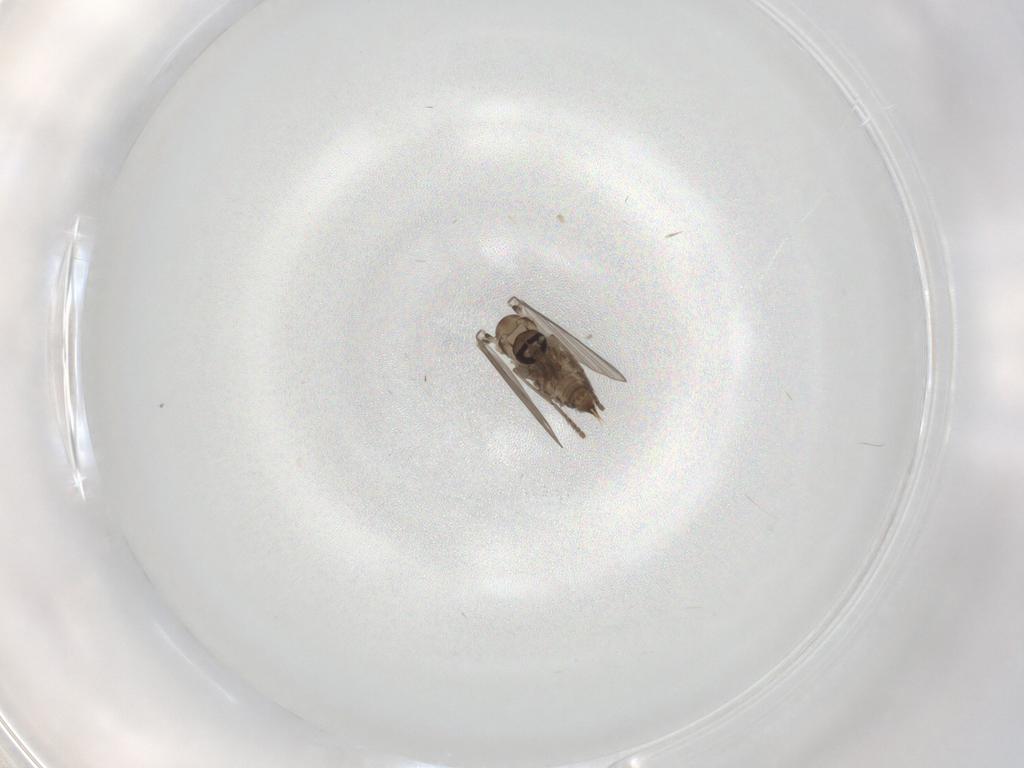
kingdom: Animalia
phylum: Arthropoda
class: Insecta
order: Diptera
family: Psychodidae
